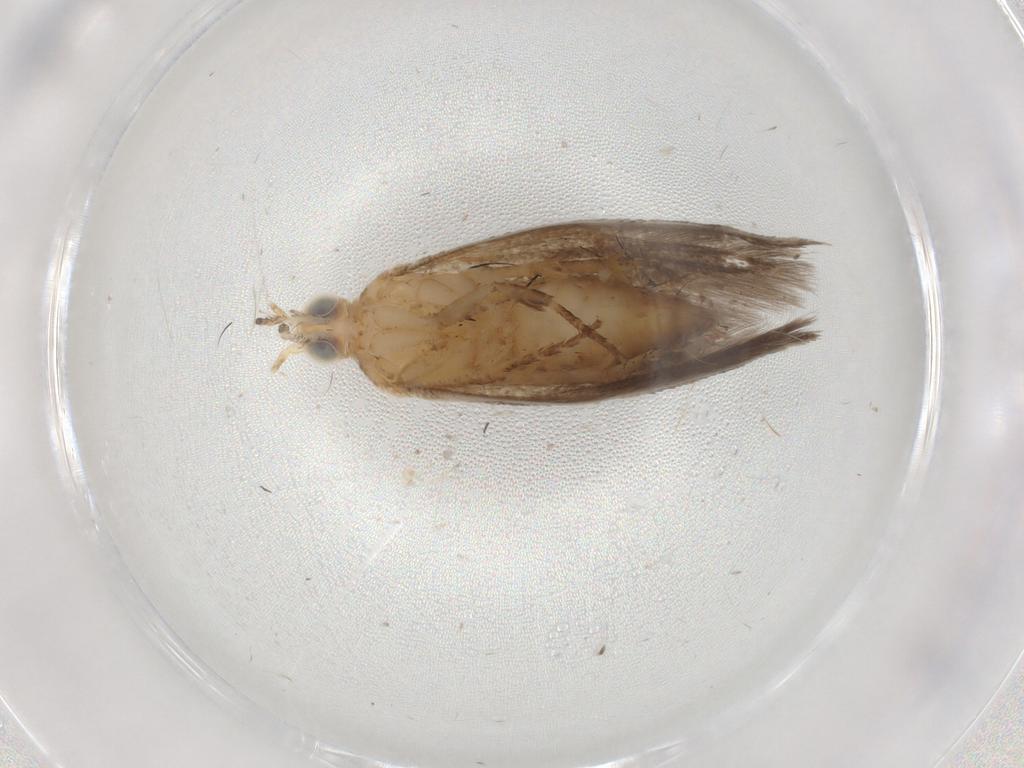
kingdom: Animalia
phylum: Arthropoda
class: Insecta
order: Lepidoptera
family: Plutellidae
